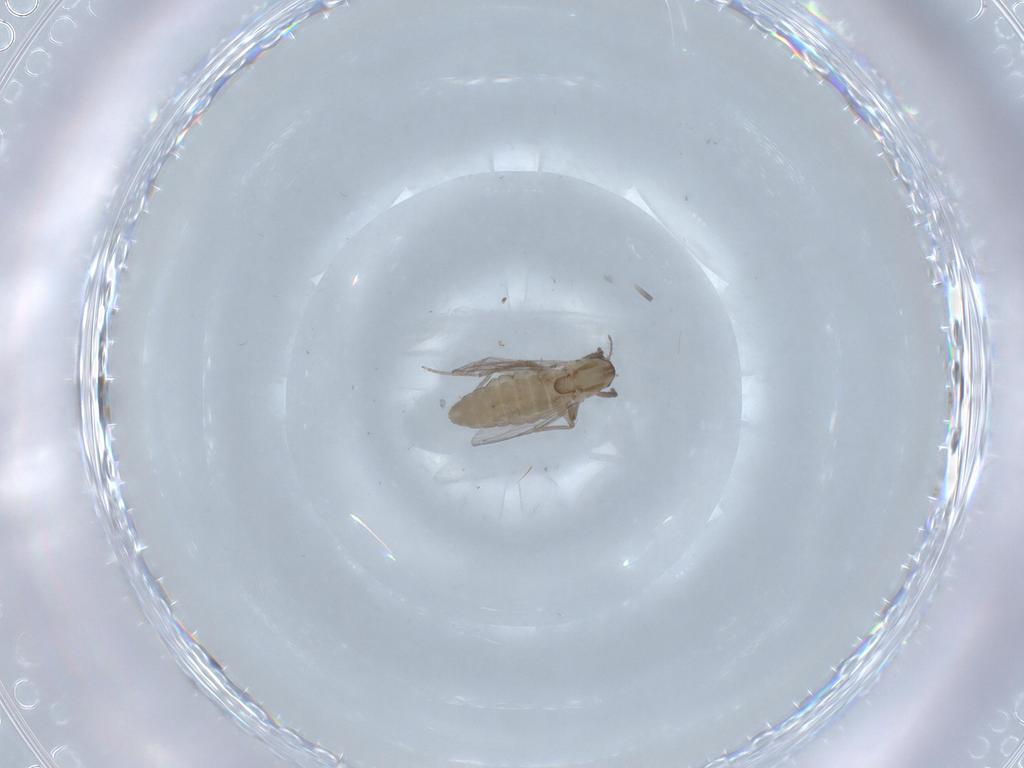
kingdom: Animalia
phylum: Arthropoda
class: Insecta
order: Diptera
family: Chironomidae
